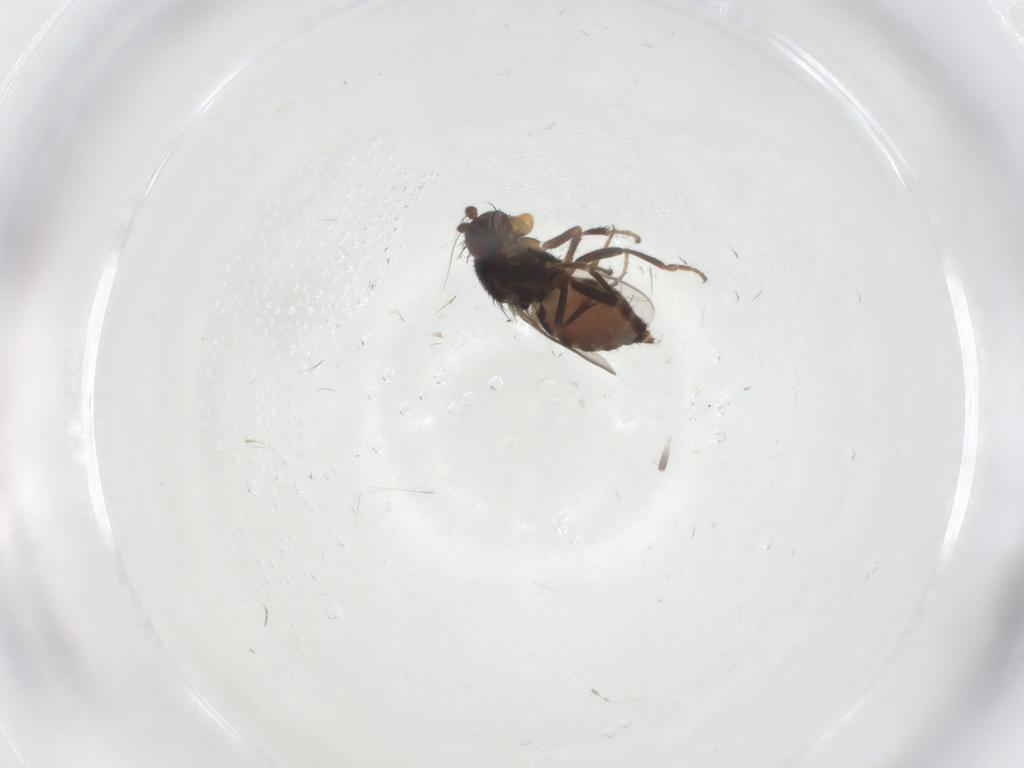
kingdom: Animalia
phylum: Arthropoda
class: Insecta
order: Diptera
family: Sphaeroceridae
